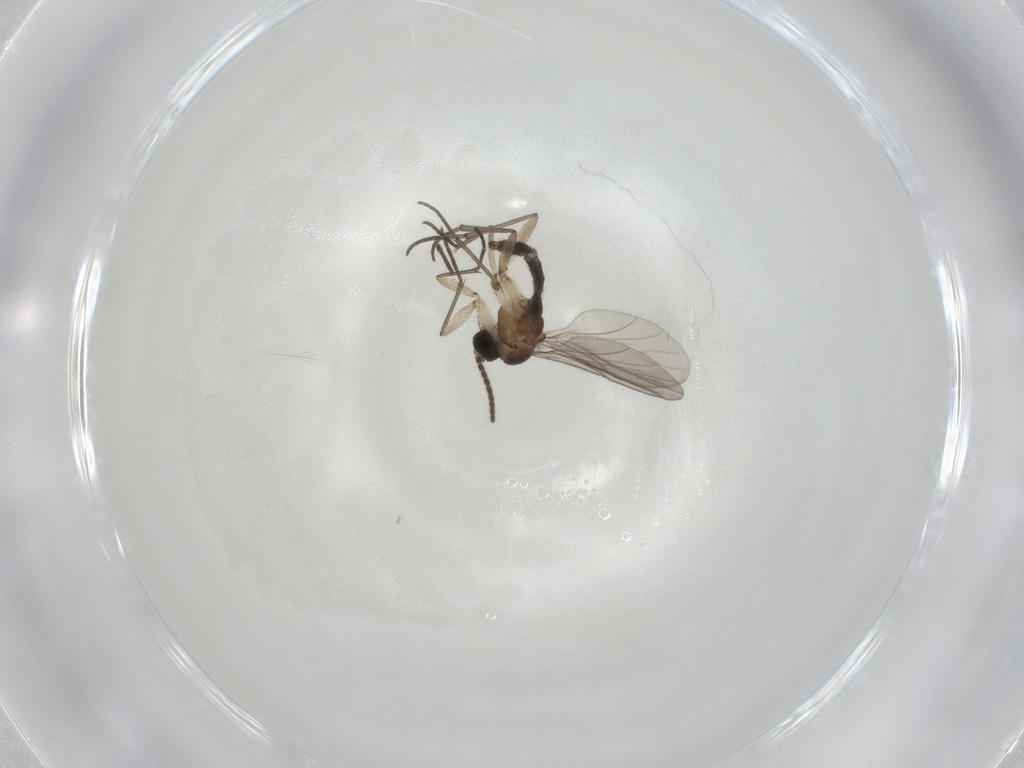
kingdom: Animalia
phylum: Arthropoda
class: Insecta
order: Diptera
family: Sciaridae
